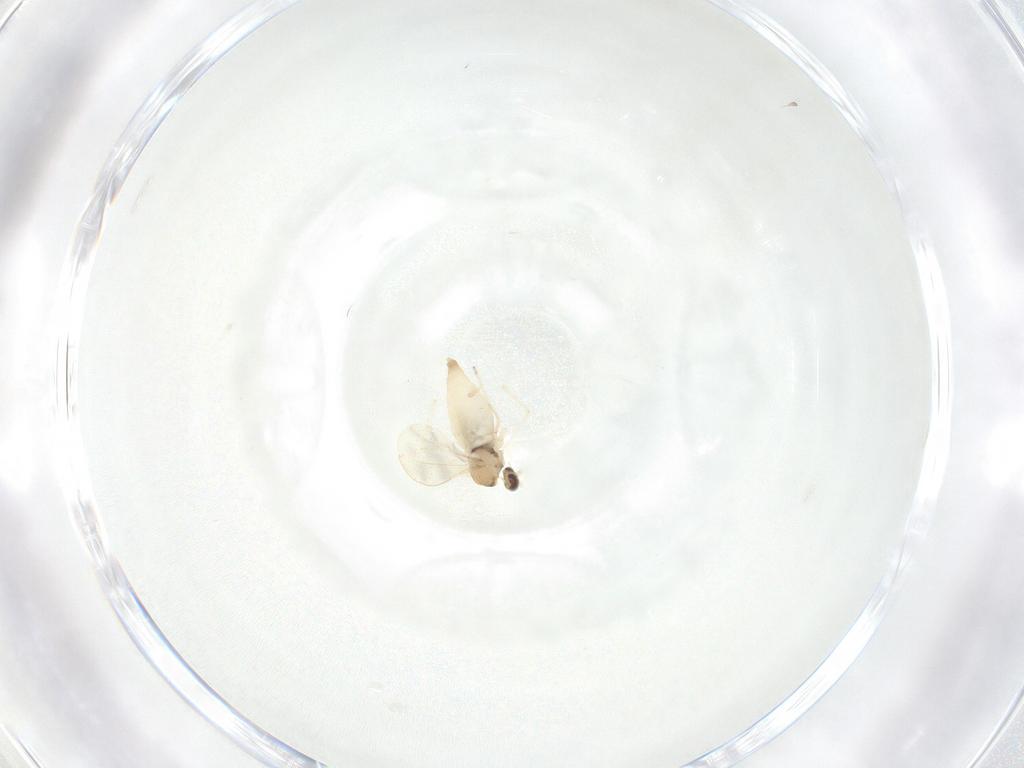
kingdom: Animalia
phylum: Arthropoda
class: Insecta
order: Diptera
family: Cecidomyiidae
